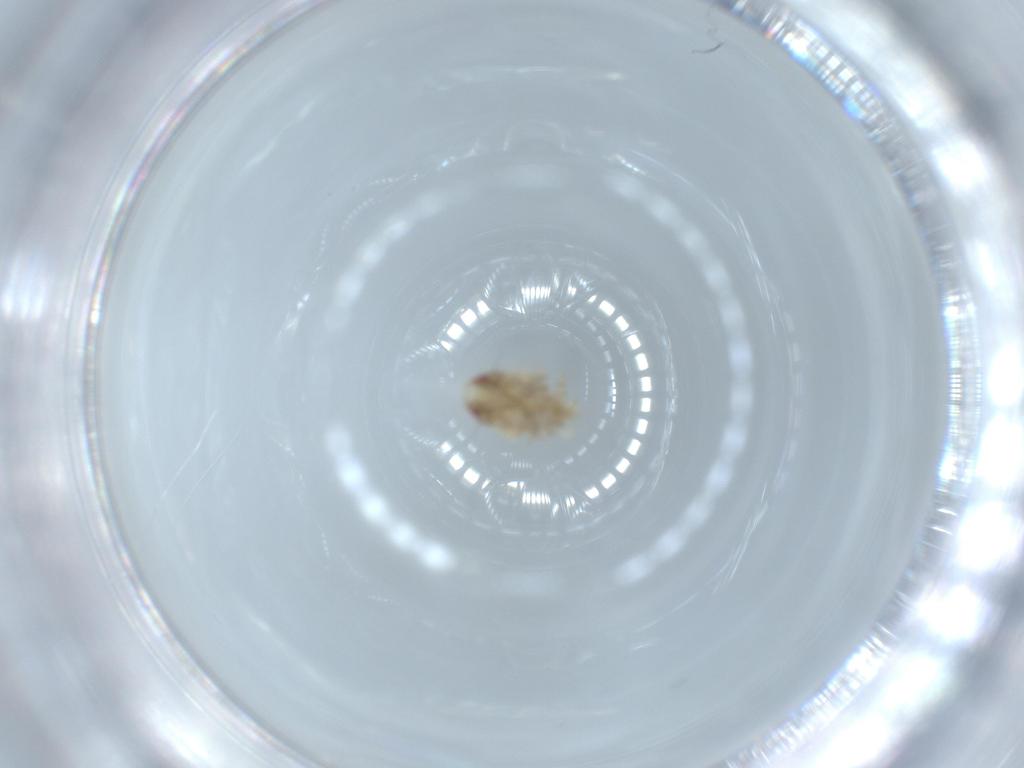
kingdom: Animalia
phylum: Arthropoda
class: Insecta
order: Hemiptera
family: Acanaloniidae
